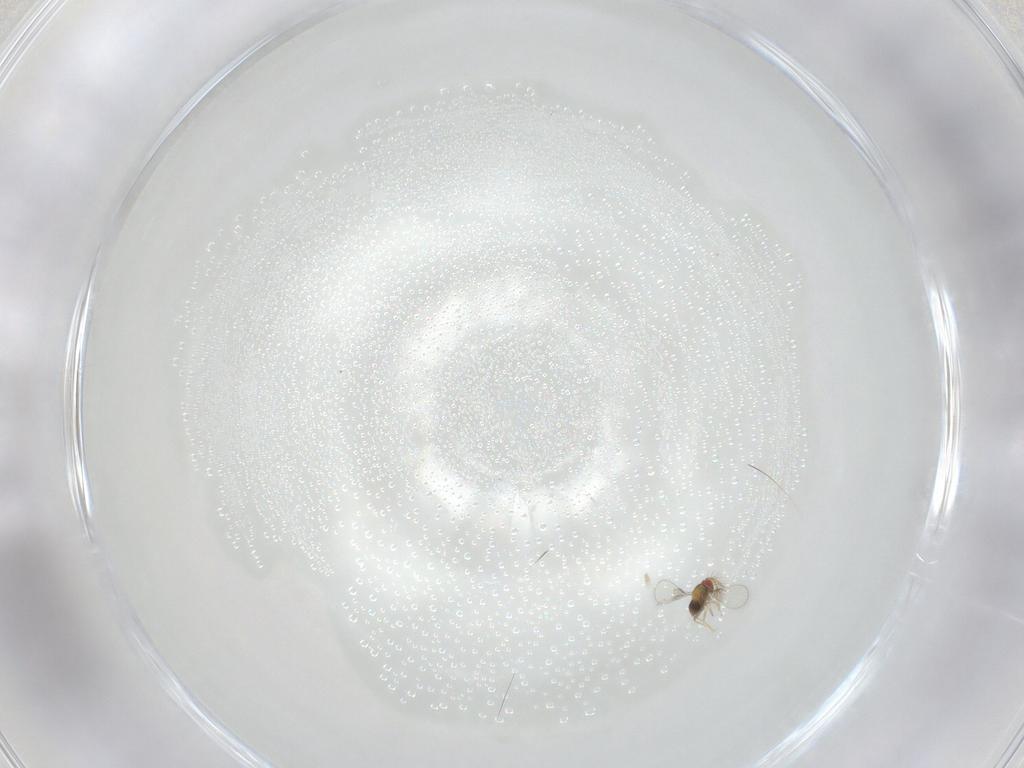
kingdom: Animalia
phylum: Arthropoda
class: Insecta
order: Hymenoptera
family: Trichogrammatidae
